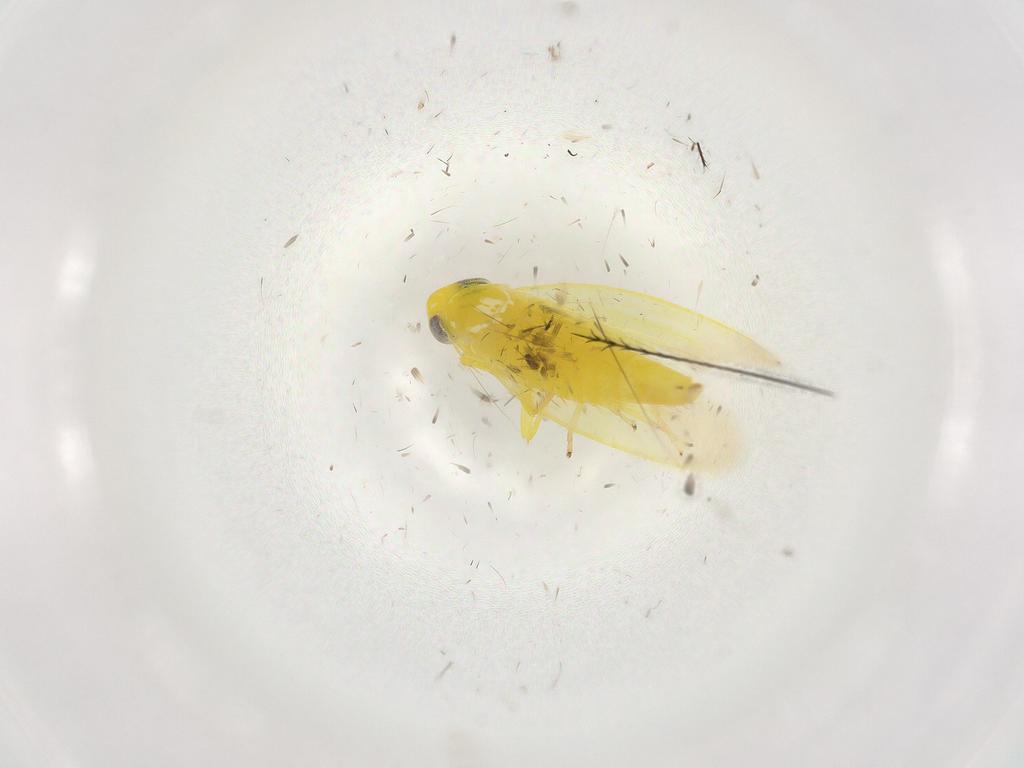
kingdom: Animalia
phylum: Arthropoda
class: Insecta
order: Hemiptera
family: Cicadellidae
